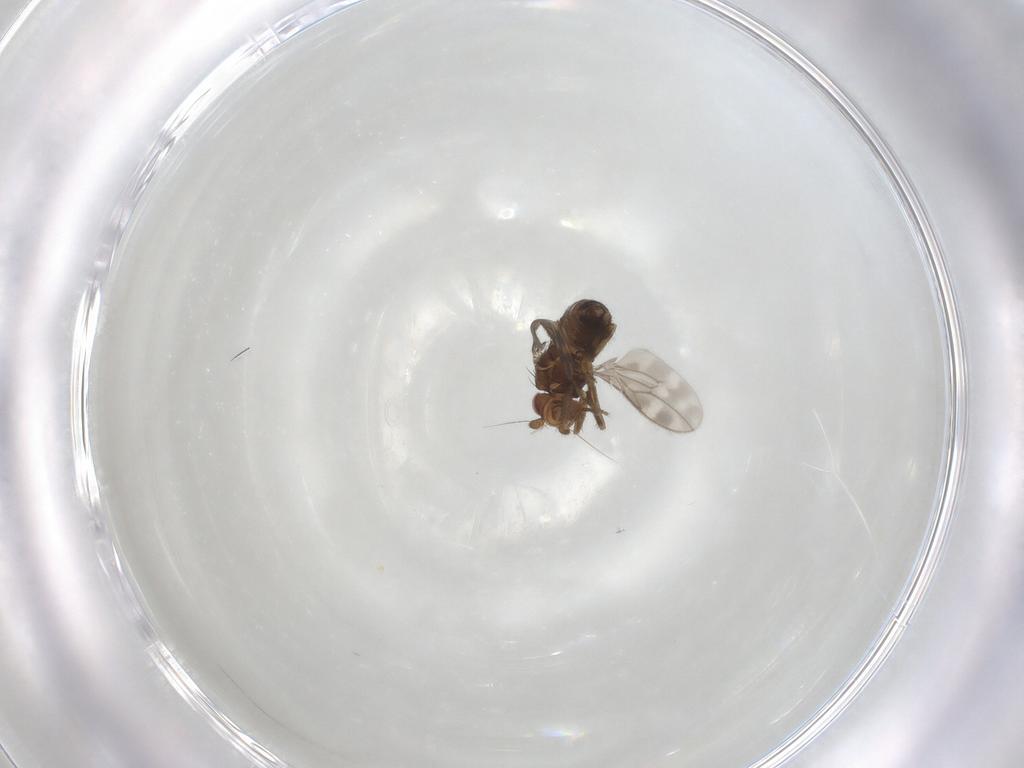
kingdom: Animalia
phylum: Arthropoda
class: Insecta
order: Diptera
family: Sphaeroceridae
